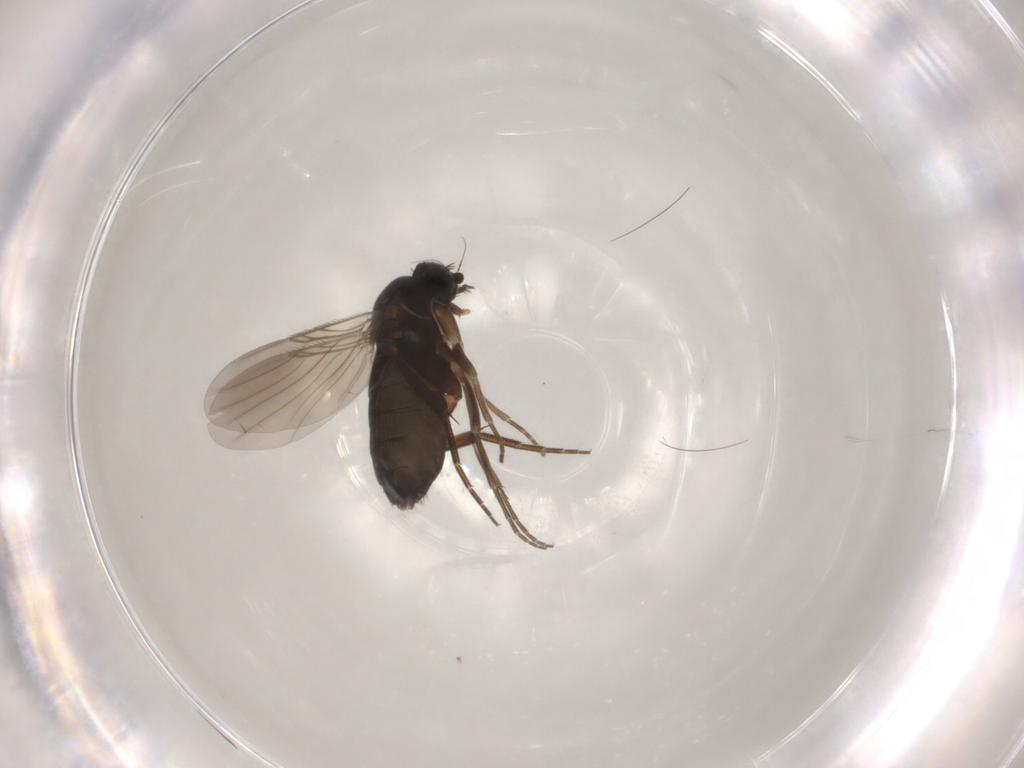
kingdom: Animalia
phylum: Arthropoda
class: Insecta
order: Diptera
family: Phoridae
